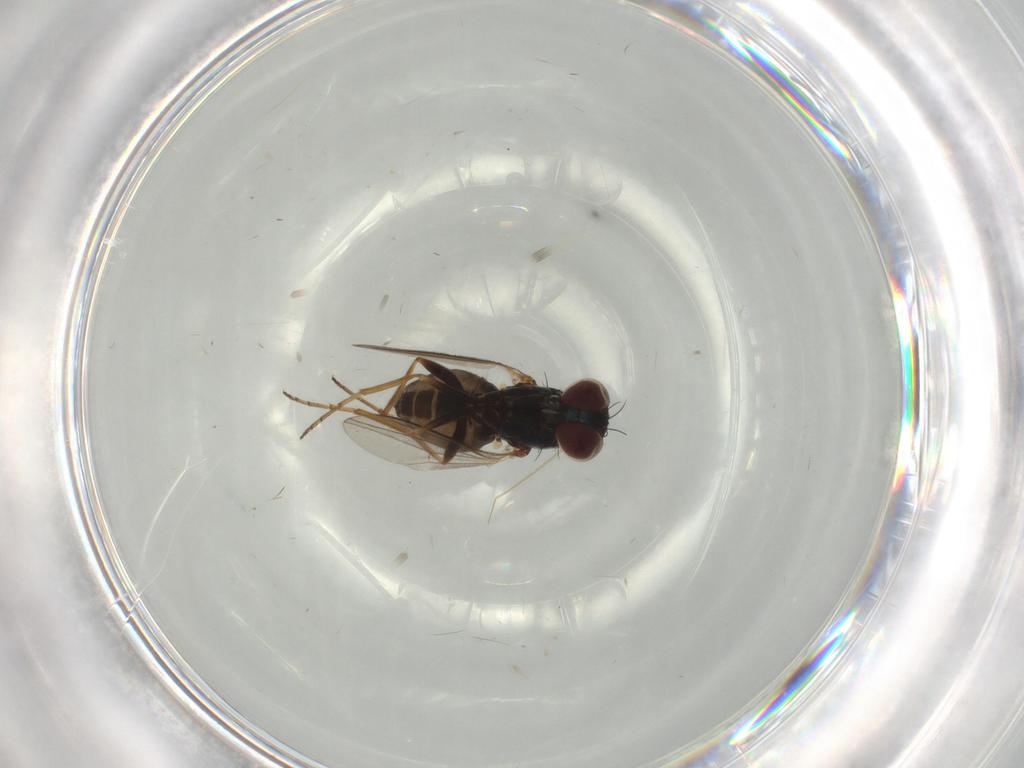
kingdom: Animalia
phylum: Arthropoda
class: Insecta
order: Diptera
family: Dolichopodidae
